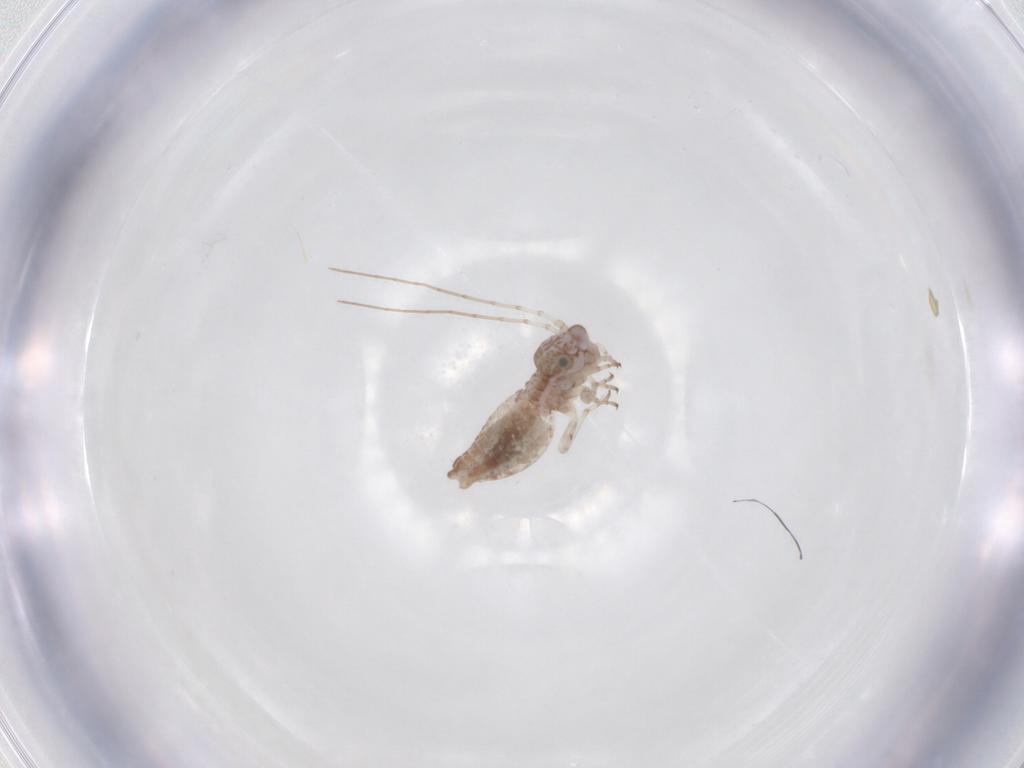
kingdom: Animalia
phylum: Arthropoda
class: Insecta
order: Psocodea
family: Psocidae
